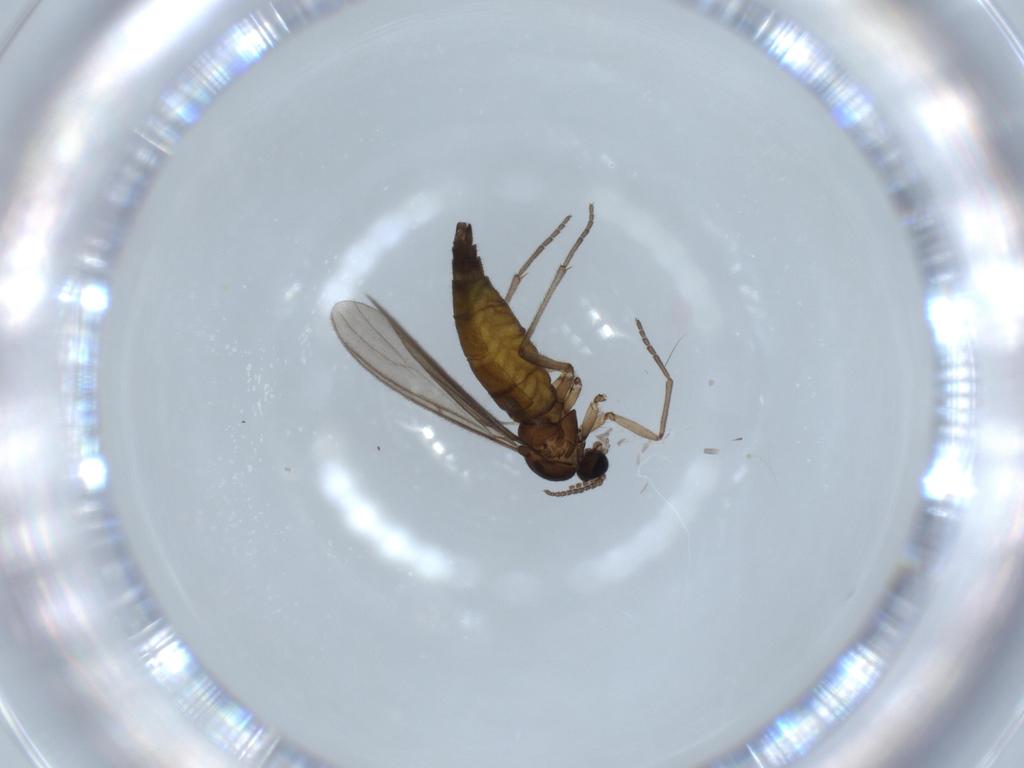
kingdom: Animalia
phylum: Arthropoda
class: Insecta
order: Diptera
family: Sciaridae
